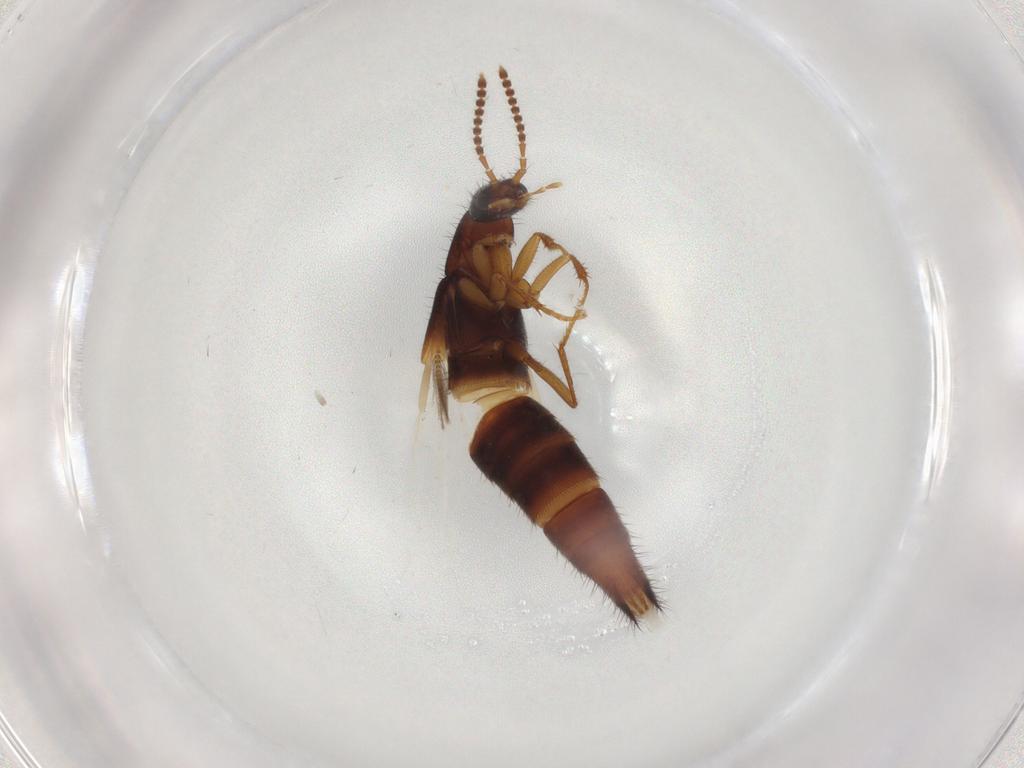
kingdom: Animalia
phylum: Arthropoda
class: Insecta
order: Coleoptera
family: Staphylinidae
